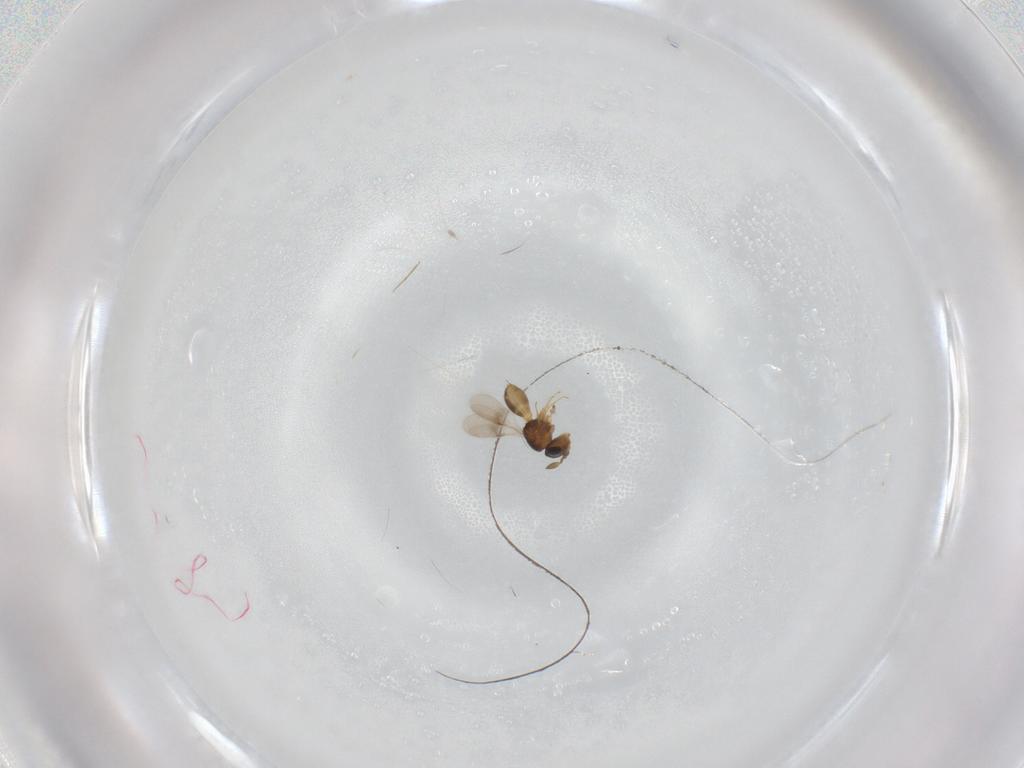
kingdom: Animalia
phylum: Arthropoda
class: Insecta
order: Hymenoptera
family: Scelionidae
